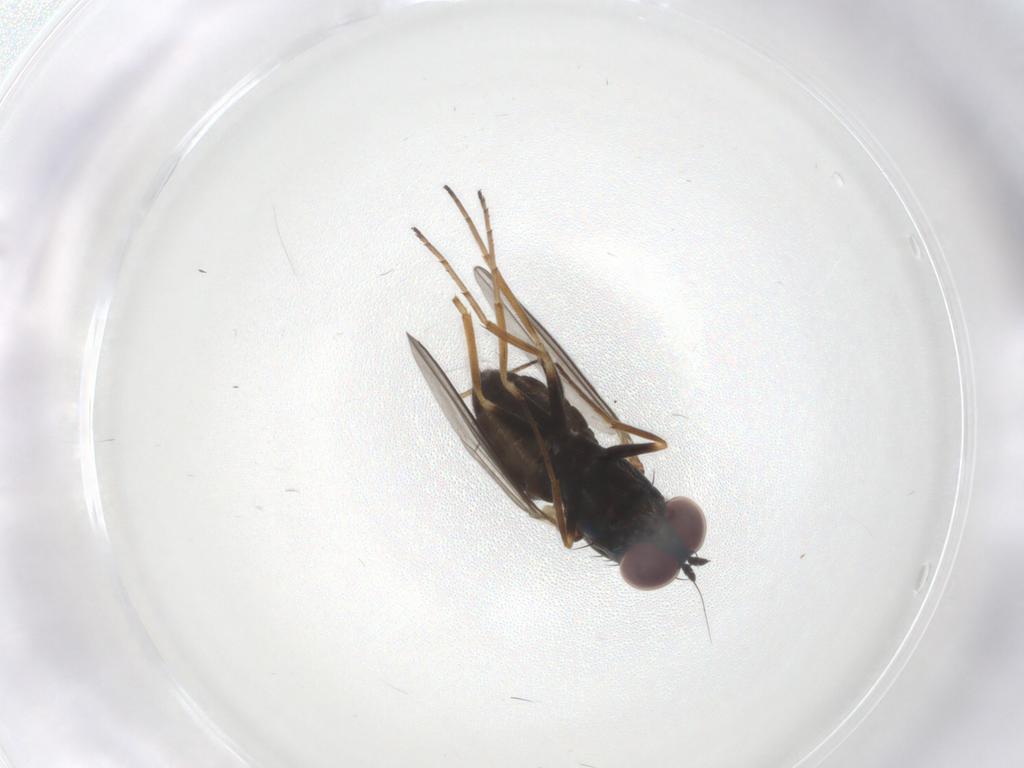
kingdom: Animalia
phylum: Arthropoda
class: Insecta
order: Diptera
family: Dolichopodidae
